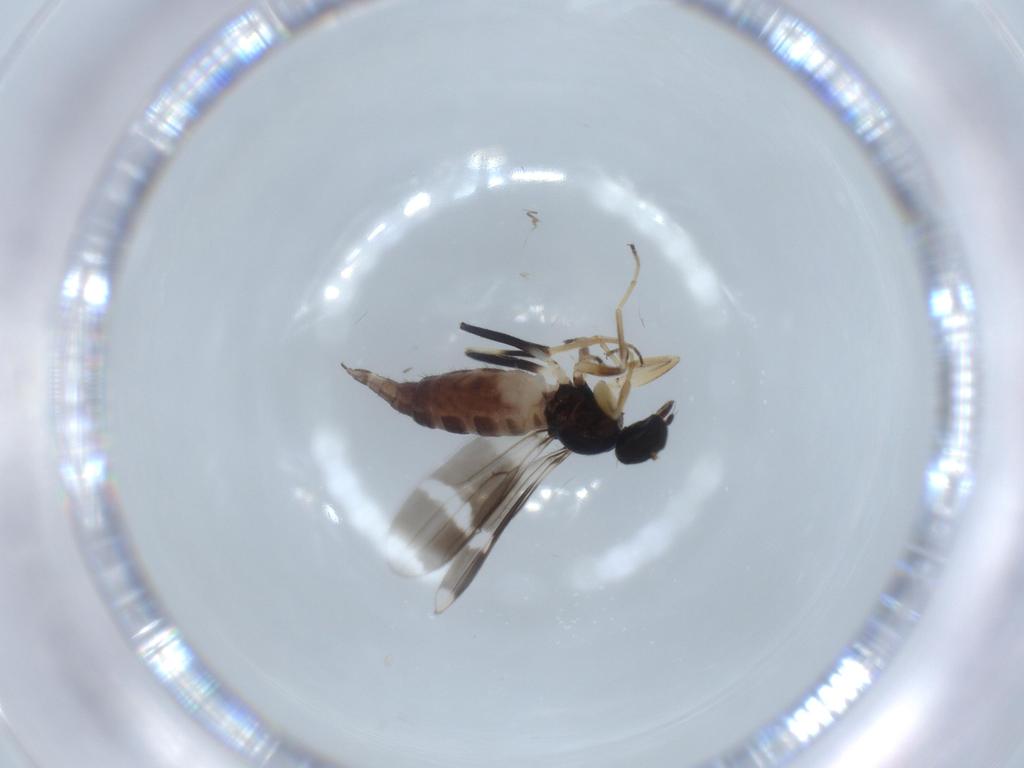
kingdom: Animalia
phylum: Arthropoda
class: Insecta
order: Diptera
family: Hybotidae
